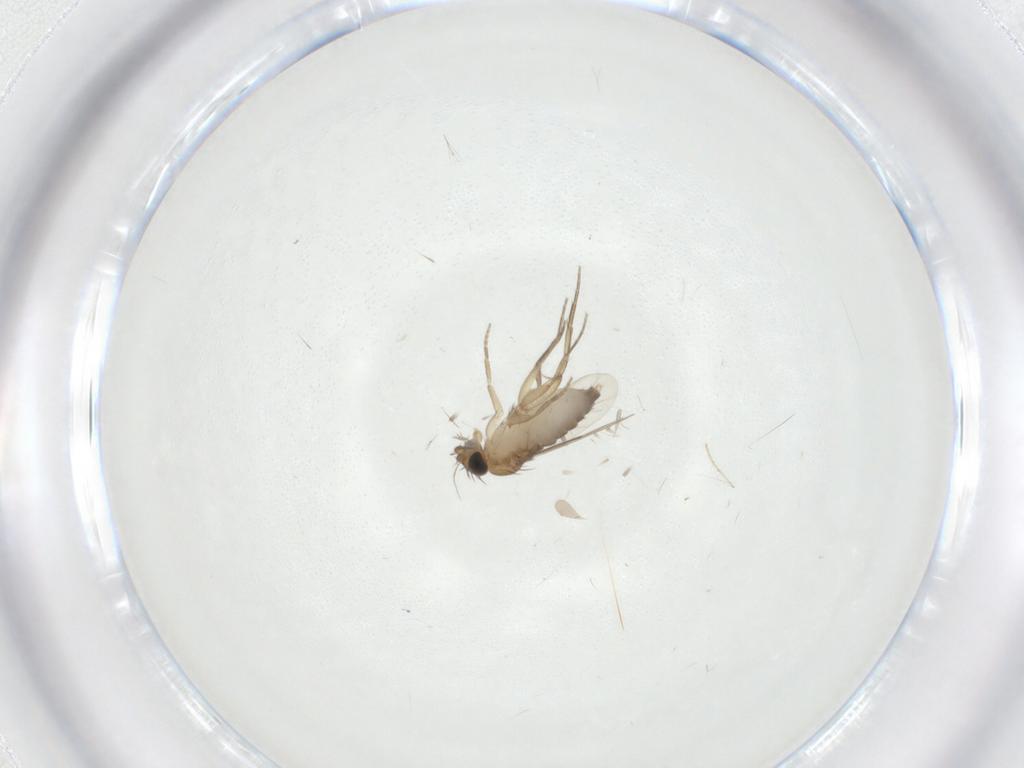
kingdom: Animalia
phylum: Arthropoda
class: Insecta
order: Diptera
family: Phoridae
